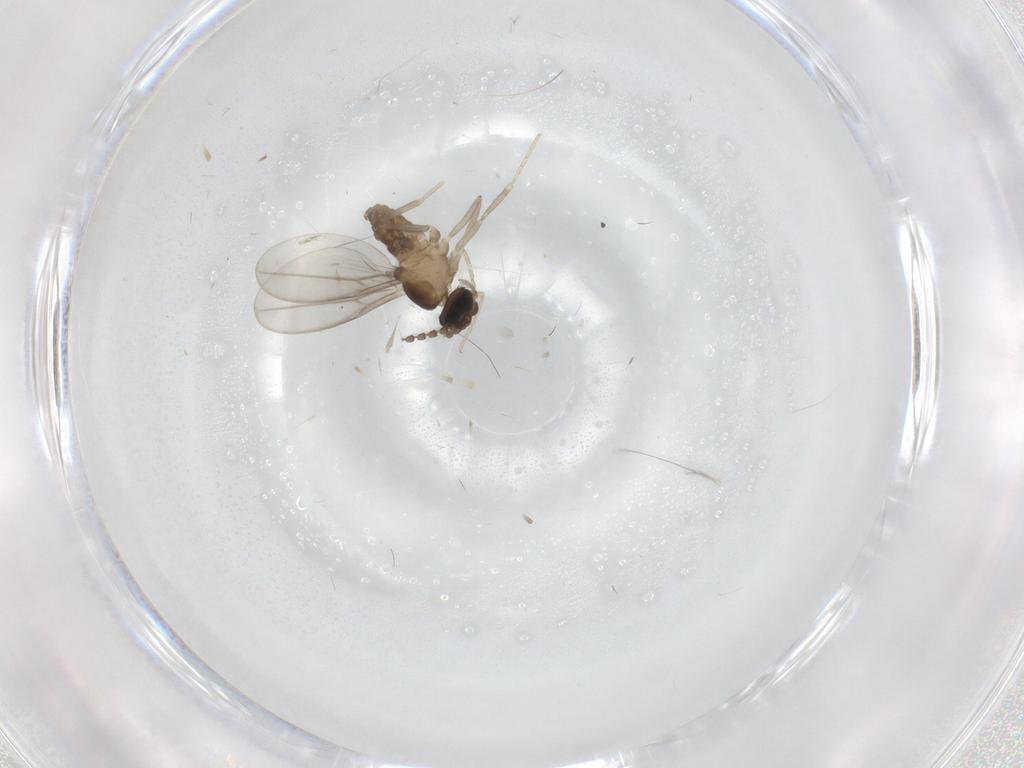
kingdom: Animalia
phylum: Arthropoda
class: Insecta
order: Diptera
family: Cecidomyiidae
